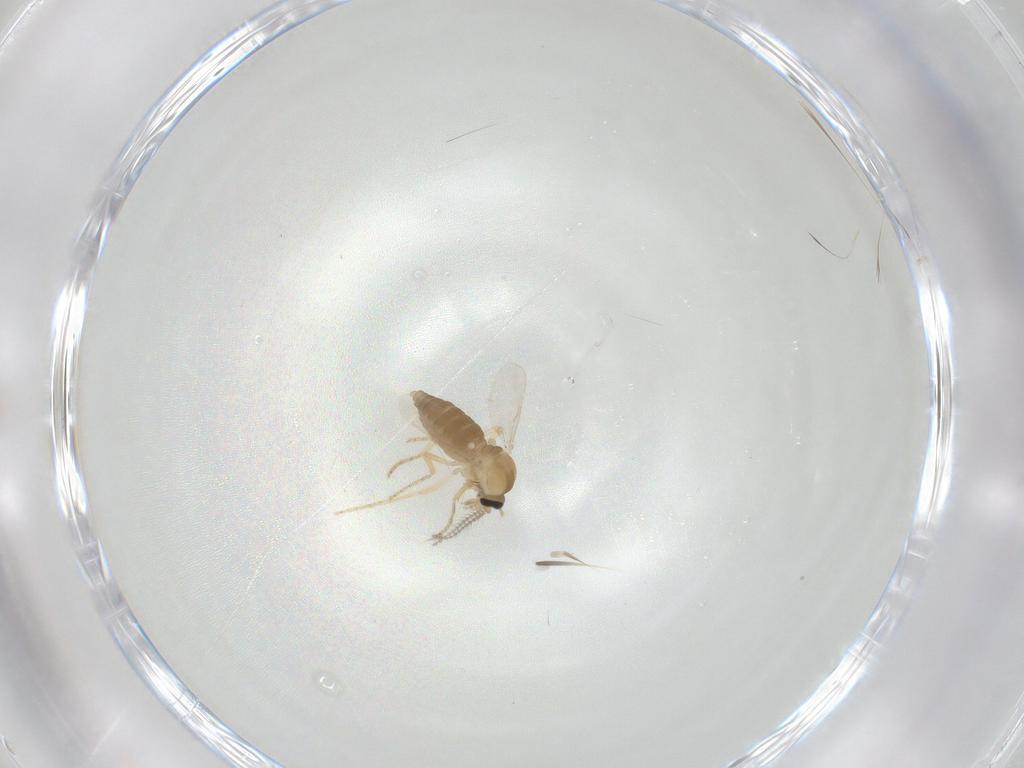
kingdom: Animalia
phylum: Arthropoda
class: Insecta
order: Diptera
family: Ceratopogonidae
